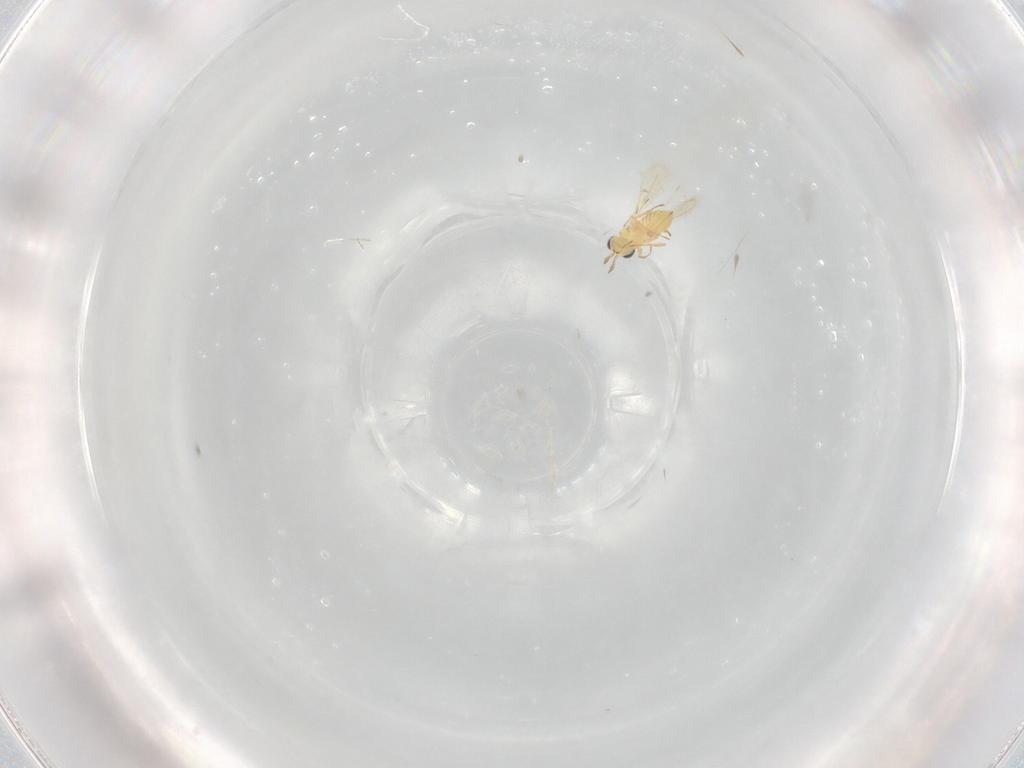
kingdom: Animalia
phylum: Arthropoda
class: Insecta
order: Hymenoptera
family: Trichogrammatidae
